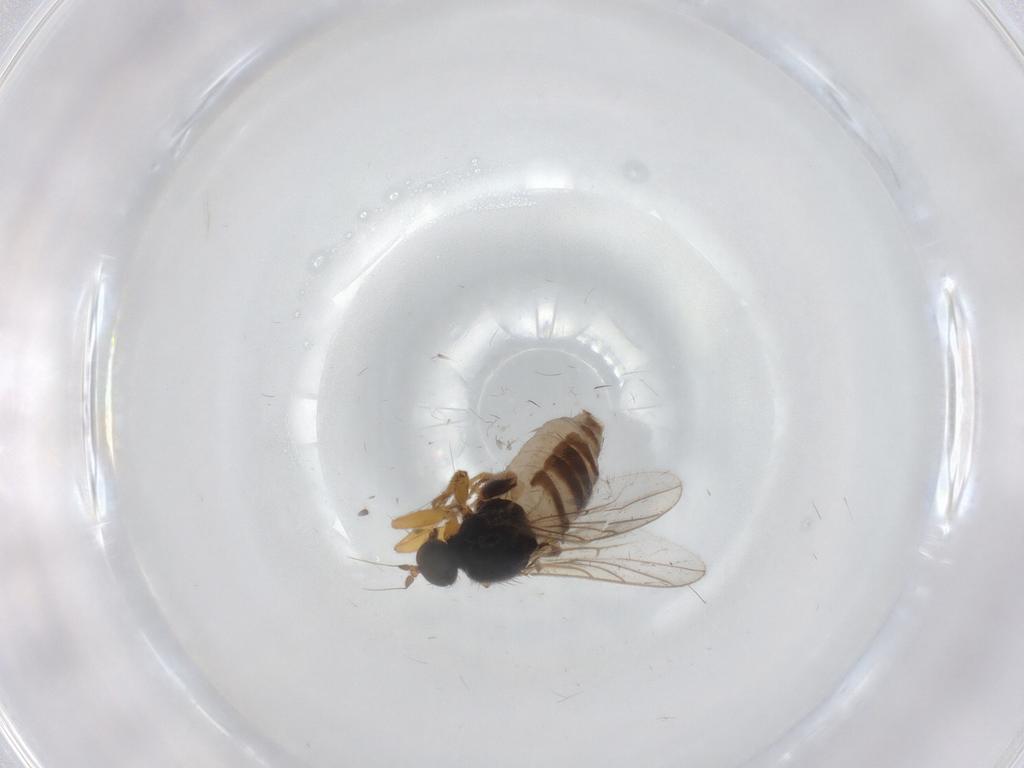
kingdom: Animalia
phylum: Arthropoda
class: Insecta
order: Diptera
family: Hybotidae
